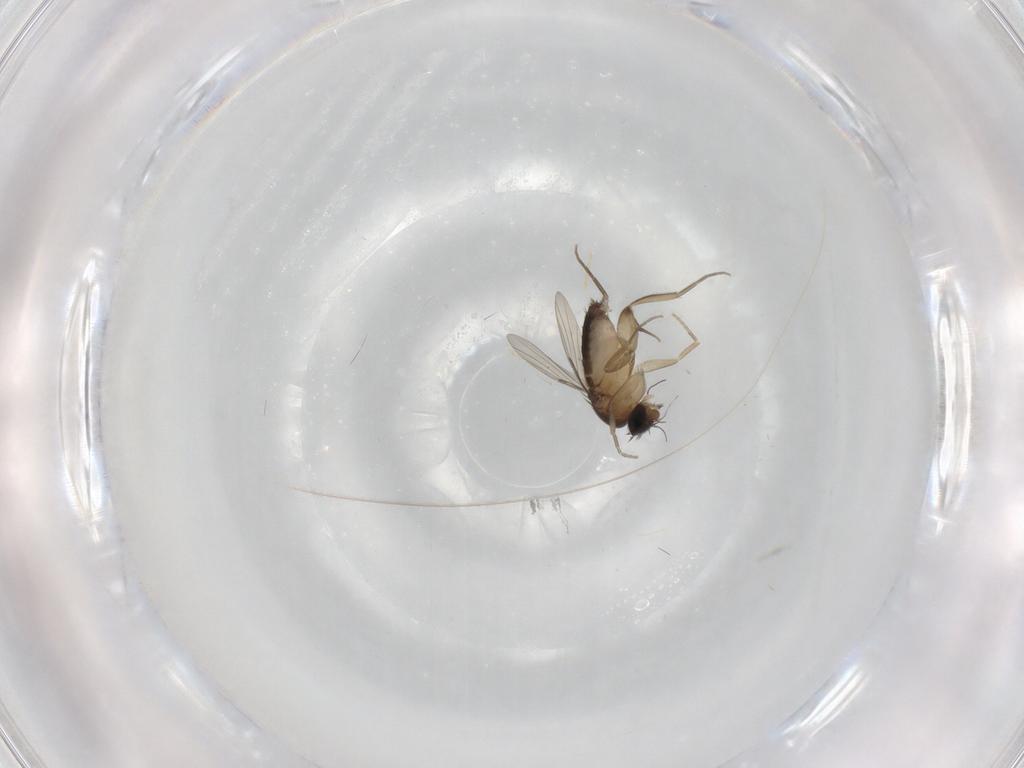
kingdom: Animalia
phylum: Arthropoda
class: Insecta
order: Diptera
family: Phoridae
